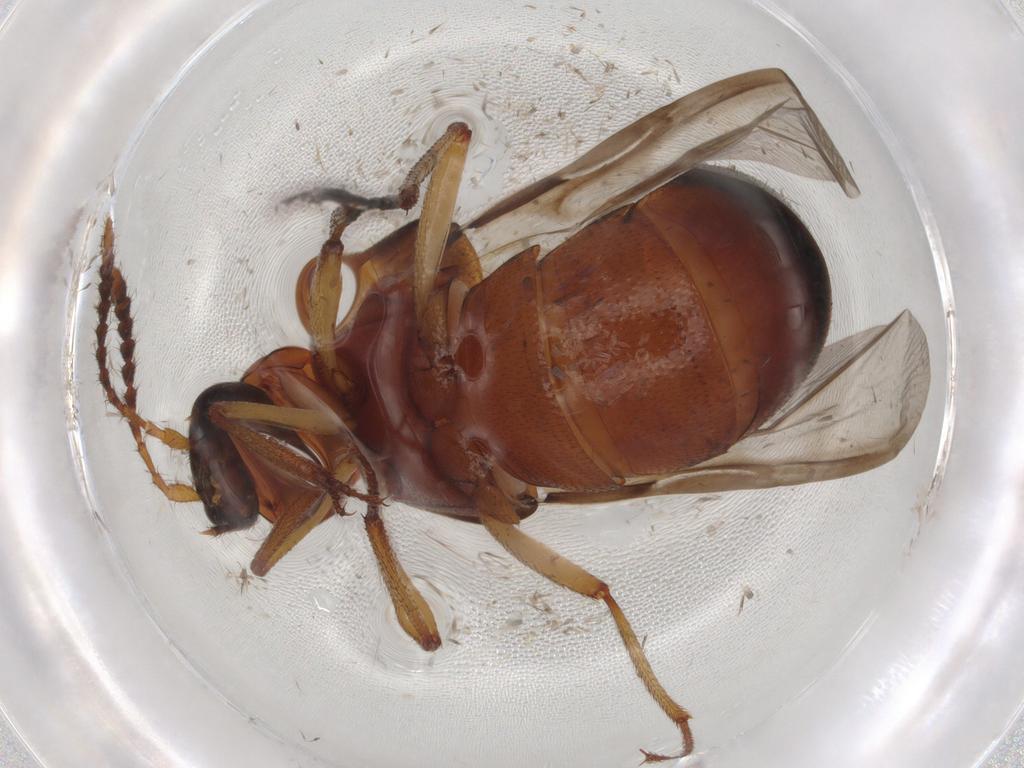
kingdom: Animalia
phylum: Arthropoda
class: Insecta
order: Coleoptera
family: Staphylinidae
